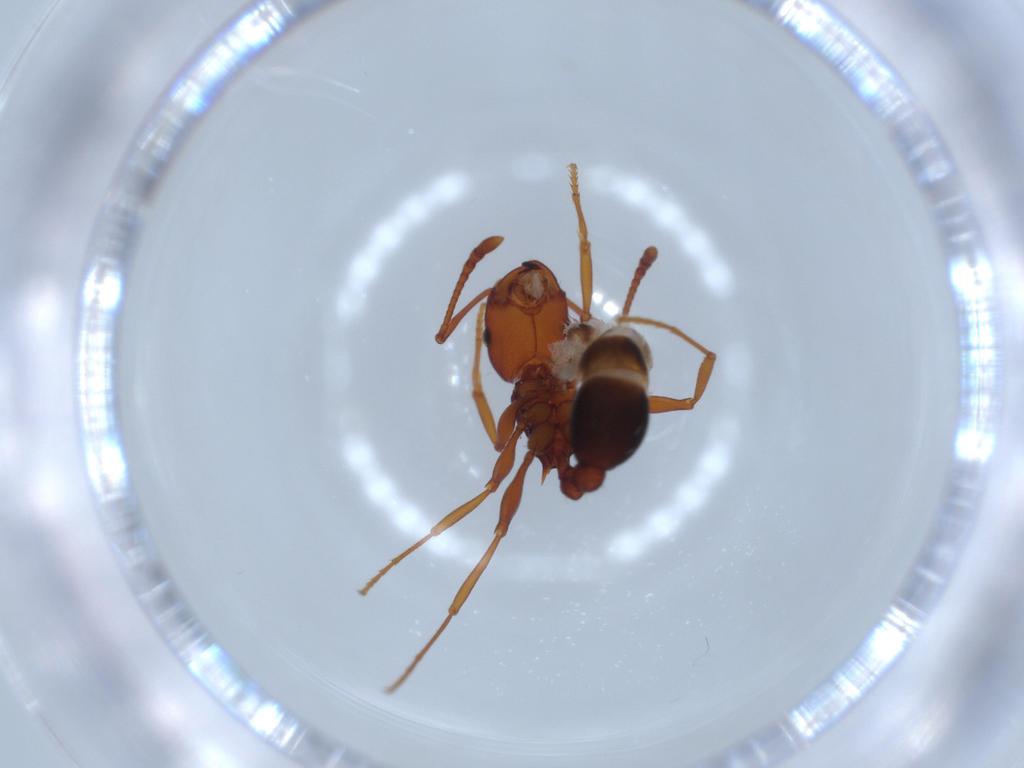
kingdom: Animalia
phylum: Arthropoda
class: Insecta
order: Hymenoptera
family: Formicidae
